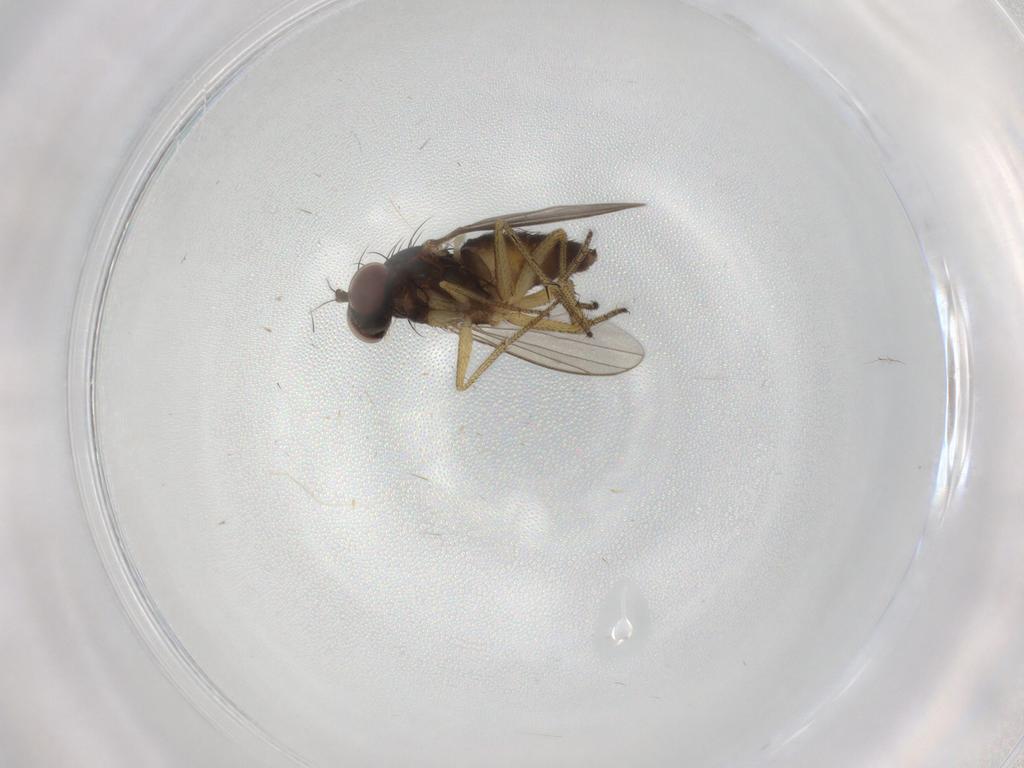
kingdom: Animalia
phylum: Arthropoda
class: Insecta
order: Diptera
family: Dolichopodidae
